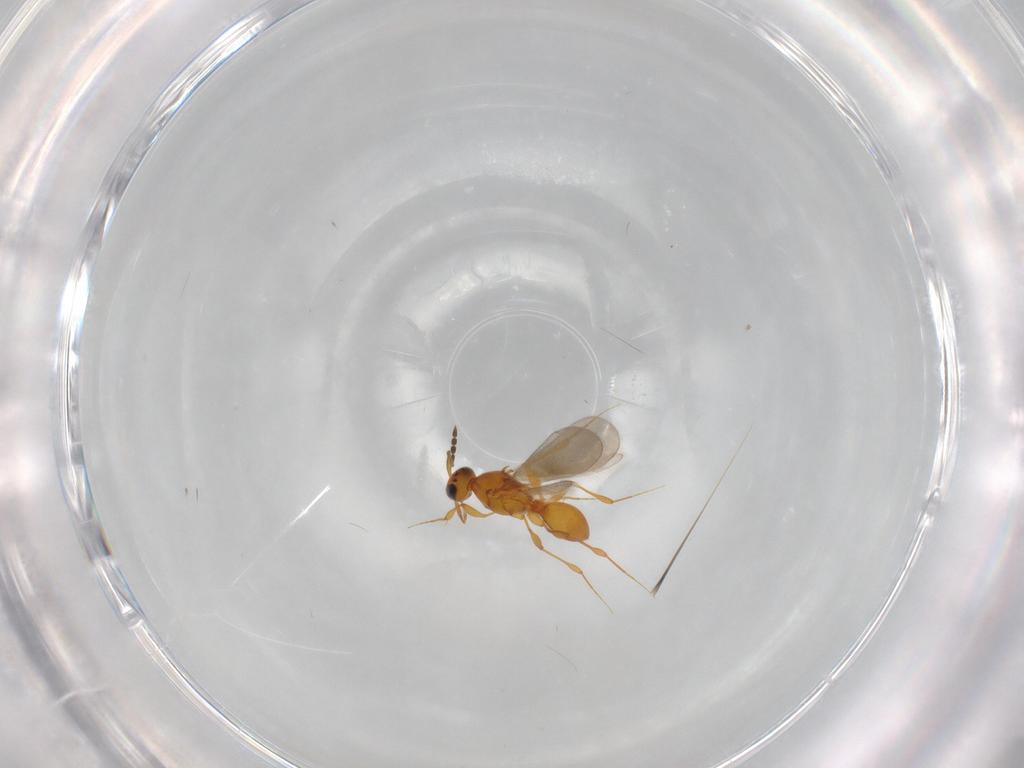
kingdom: Animalia
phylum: Arthropoda
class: Insecta
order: Hymenoptera
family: Platygastridae
